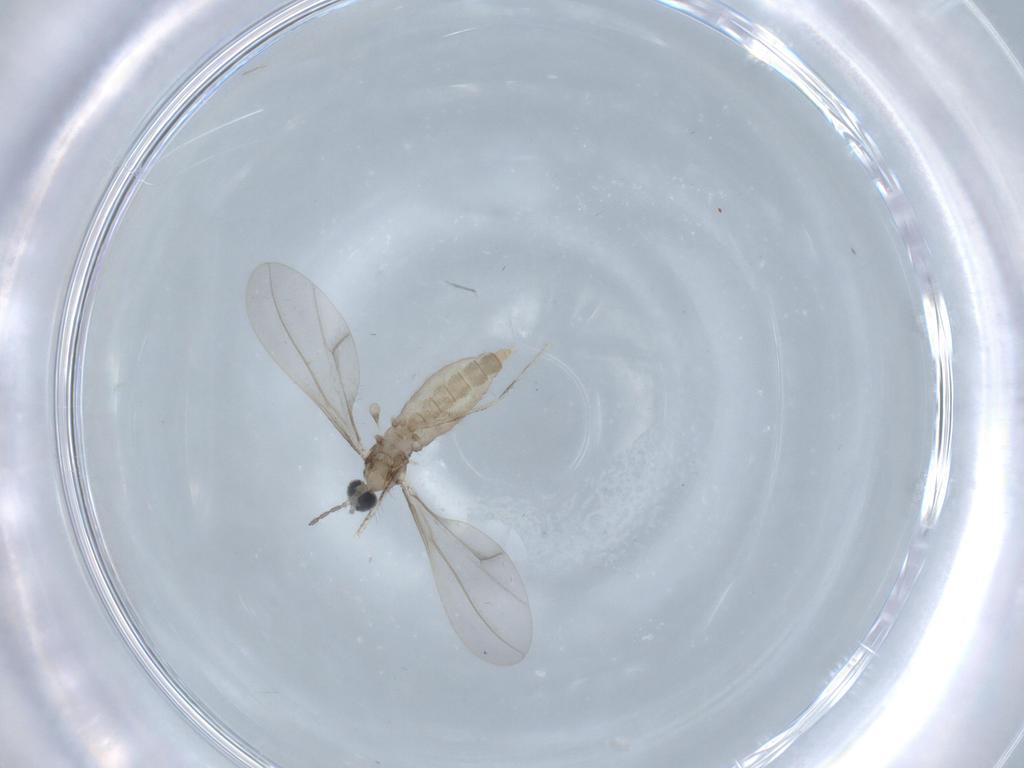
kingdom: Animalia
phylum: Arthropoda
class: Insecta
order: Diptera
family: Cecidomyiidae
